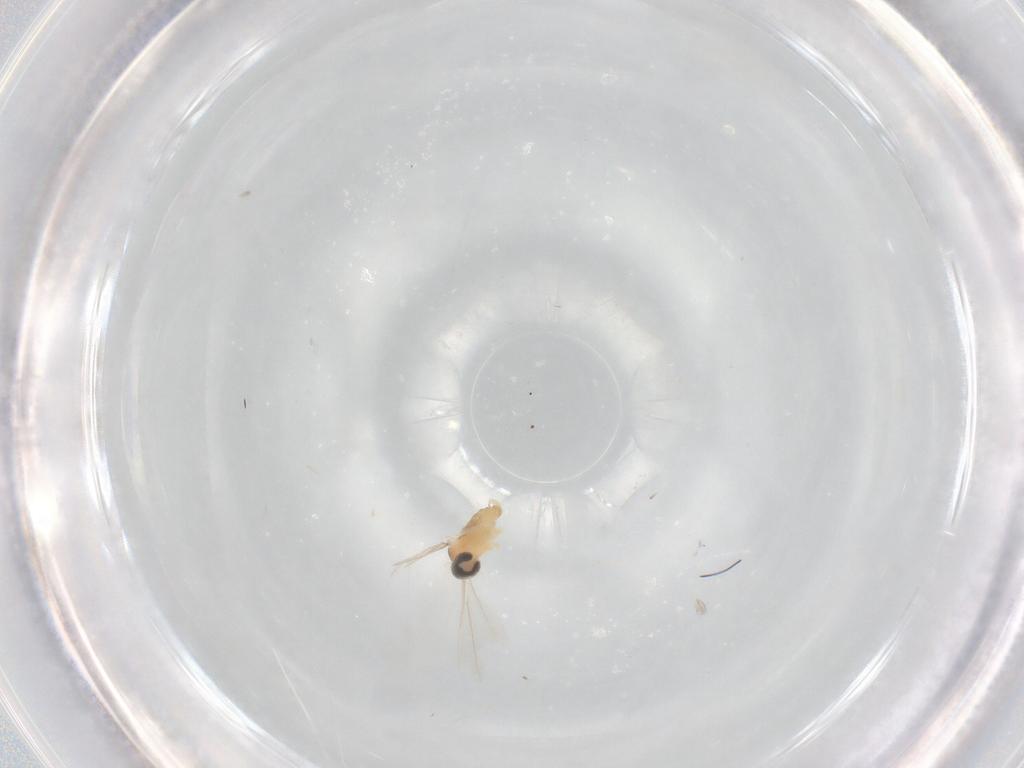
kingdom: Animalia
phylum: Arthropoda
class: Insecta
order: Diptera
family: Cecidomyiidae
